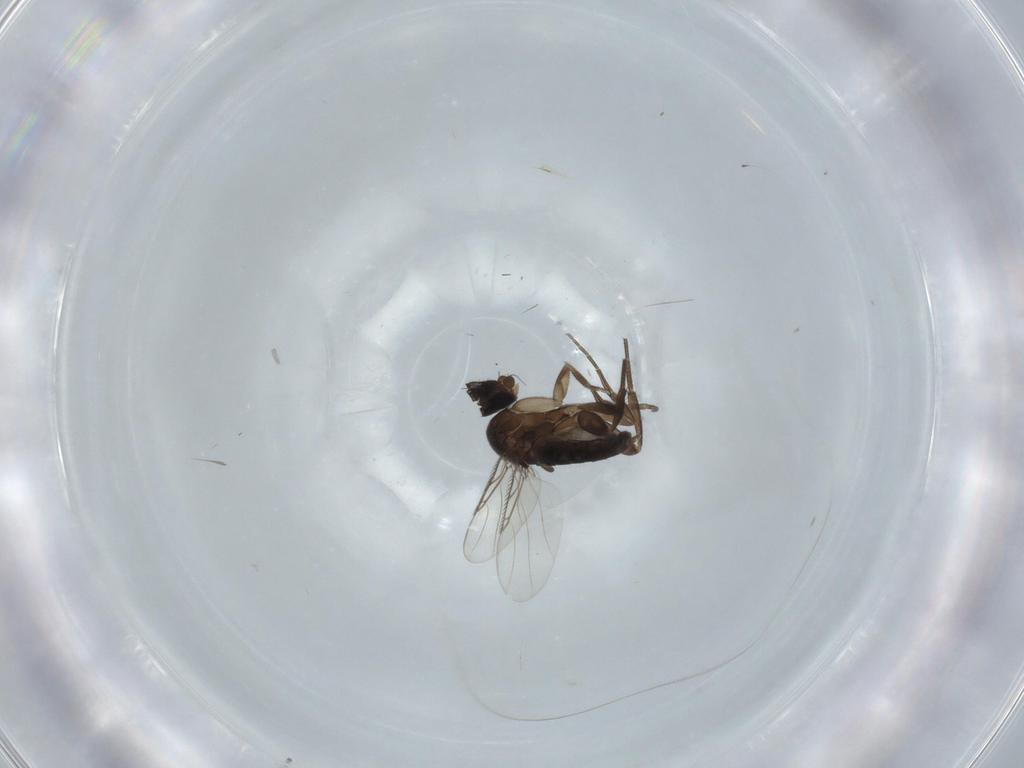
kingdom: Animalia
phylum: Arthropoda
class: Insecta
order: Diptera
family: Phoridae
